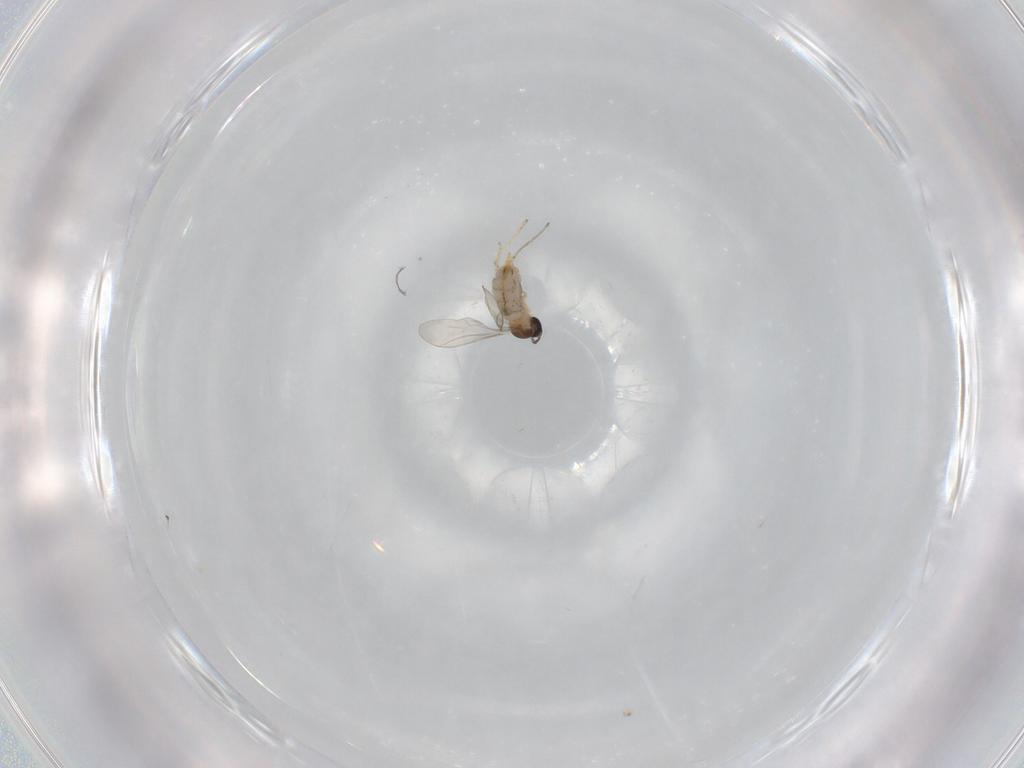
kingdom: Animalia
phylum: Arthropoda
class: Insecta
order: Diptera
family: Cecidomyiidae
